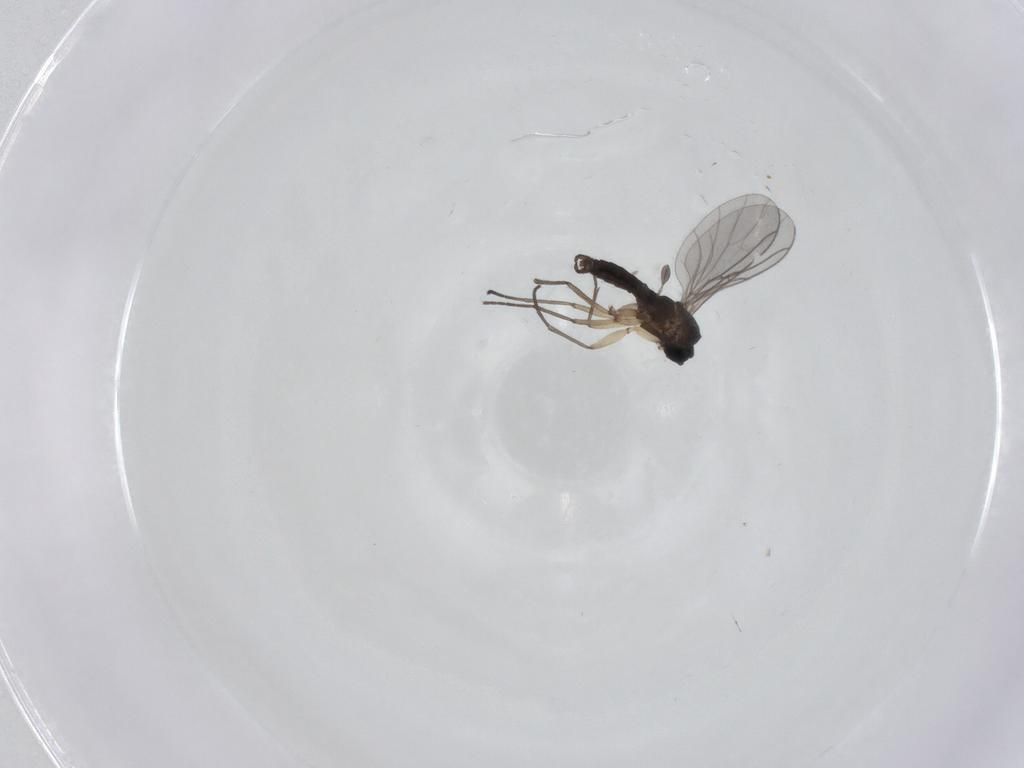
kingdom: Animalia
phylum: Arthropoda
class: Insecta
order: Diptera
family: Sciaridae
